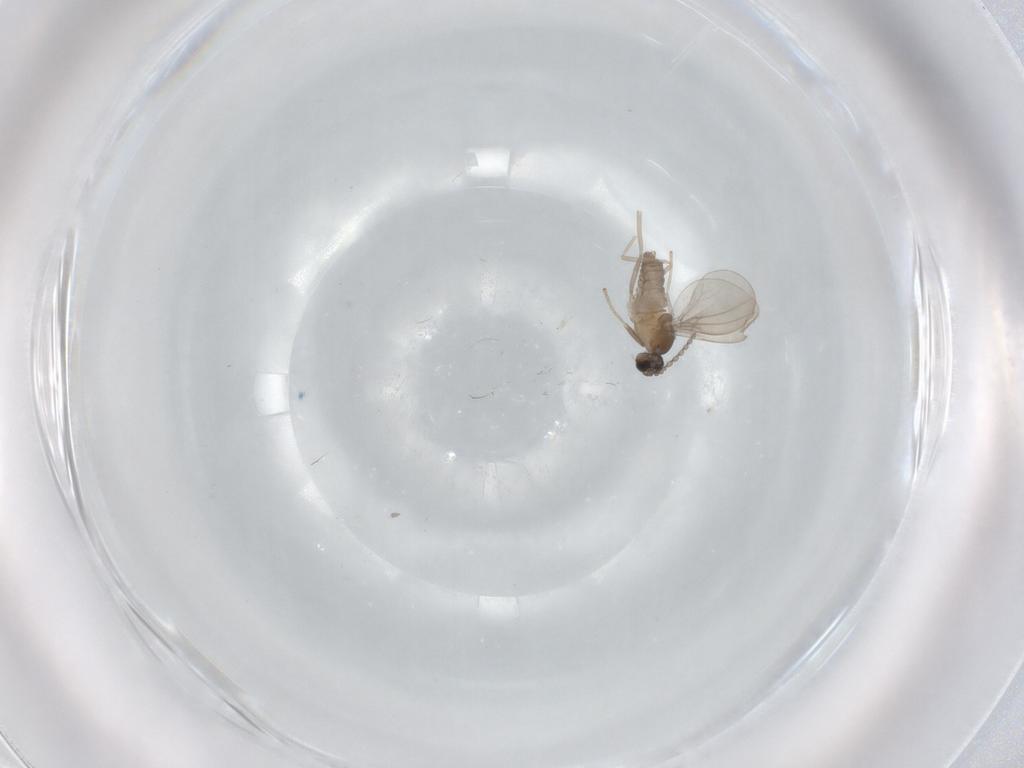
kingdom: Animalia
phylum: Arthropoda
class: Insecta
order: Diptera
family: Cecidomyiidae
